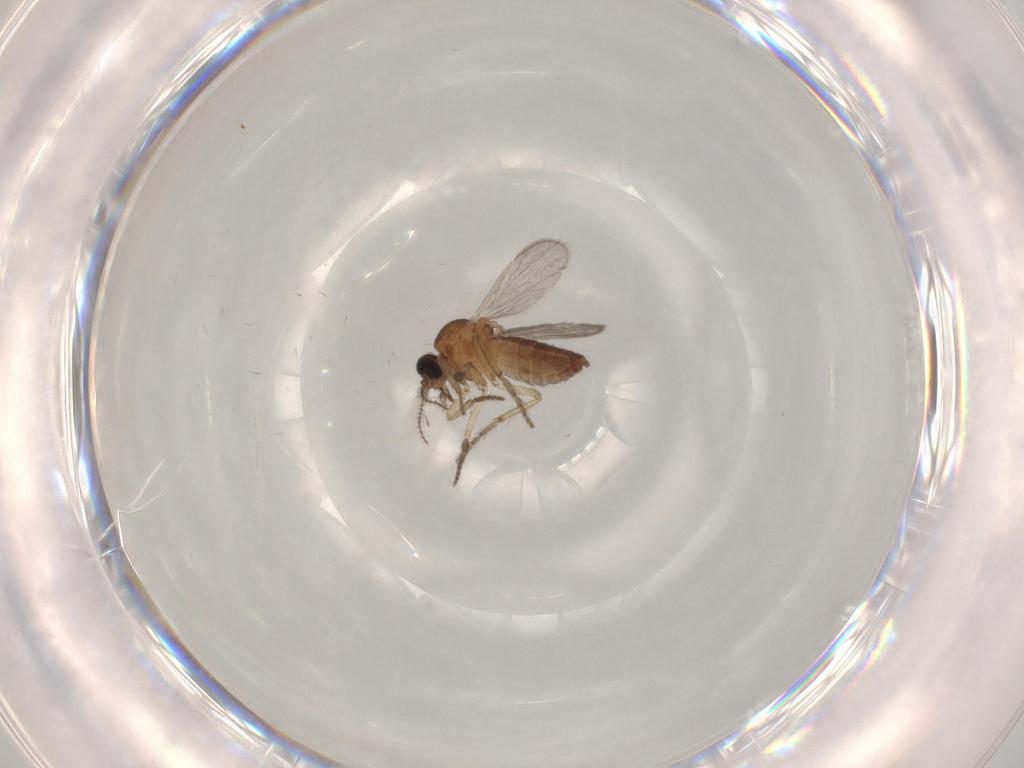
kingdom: Animalia
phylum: Arthropoda
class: Insecta
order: Diptera
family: Cecidomyiidae
